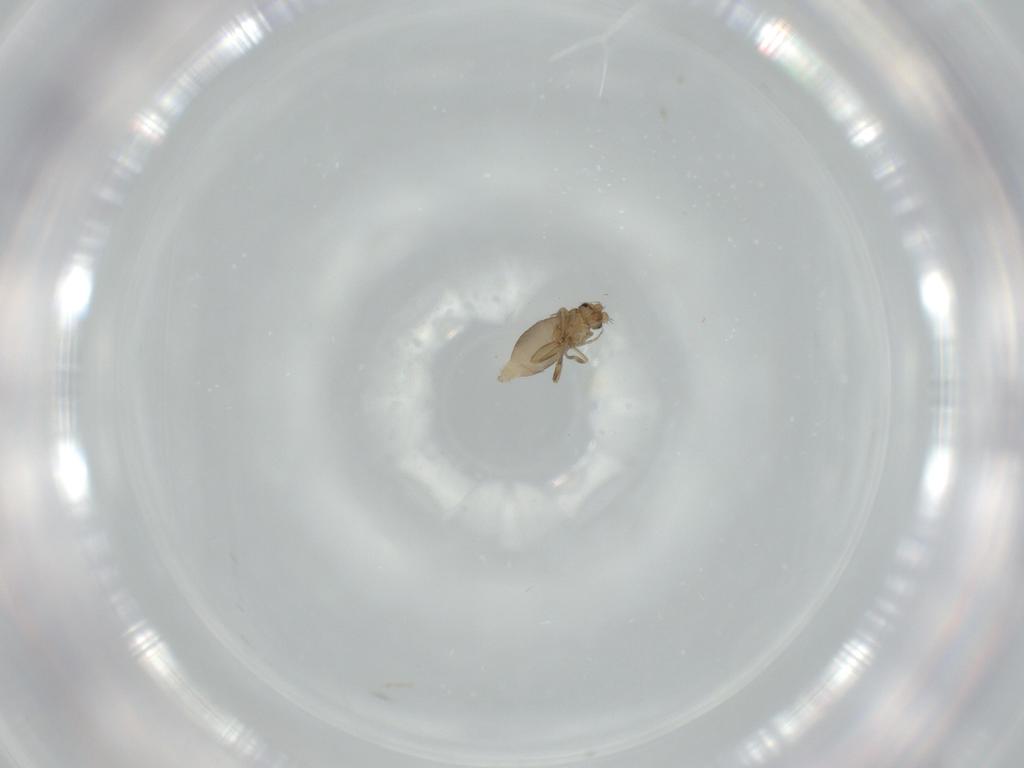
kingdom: Animalia
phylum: Arthropoda
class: Insecta
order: Diptera
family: Phoridae
